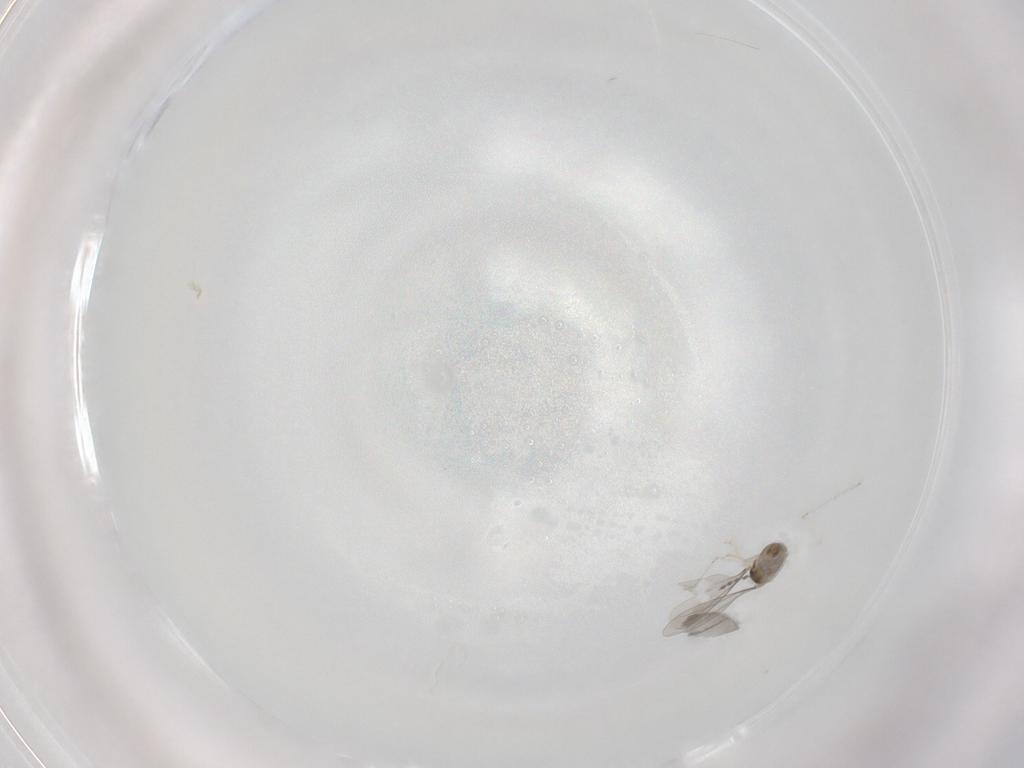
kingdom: Animalia
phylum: Arthropoda
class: Insecta
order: Diptera
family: Cecidomyiidae
